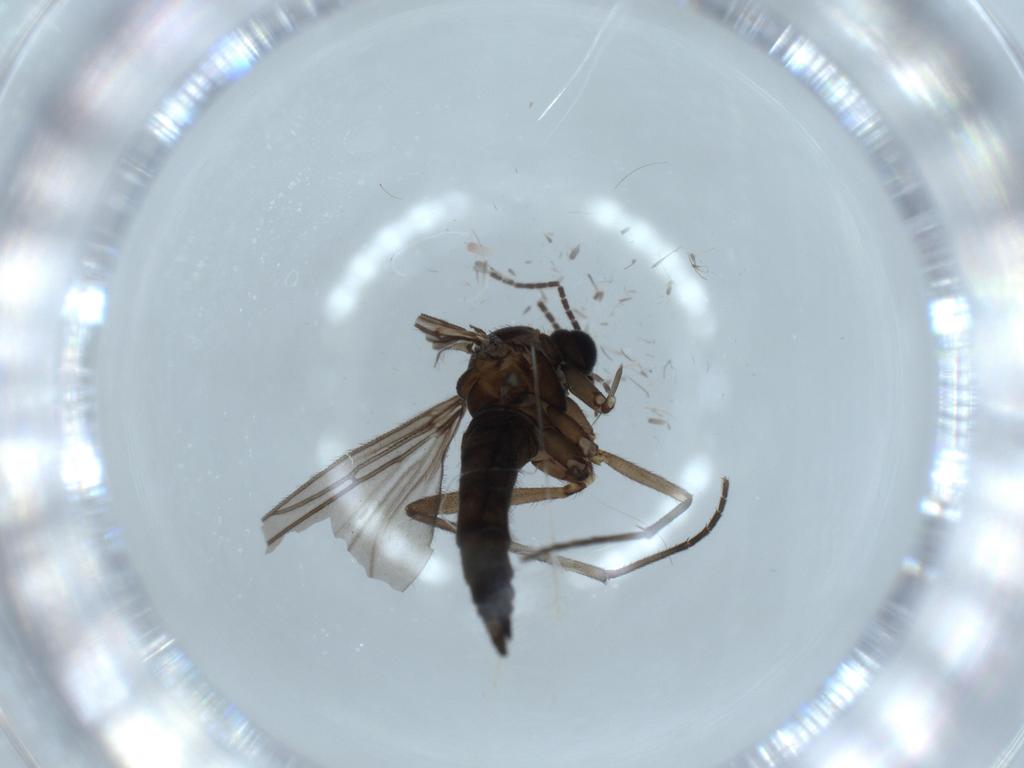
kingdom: Animalia
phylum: Arthropoda
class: Insecta
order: Diptera
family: Sciaridae
